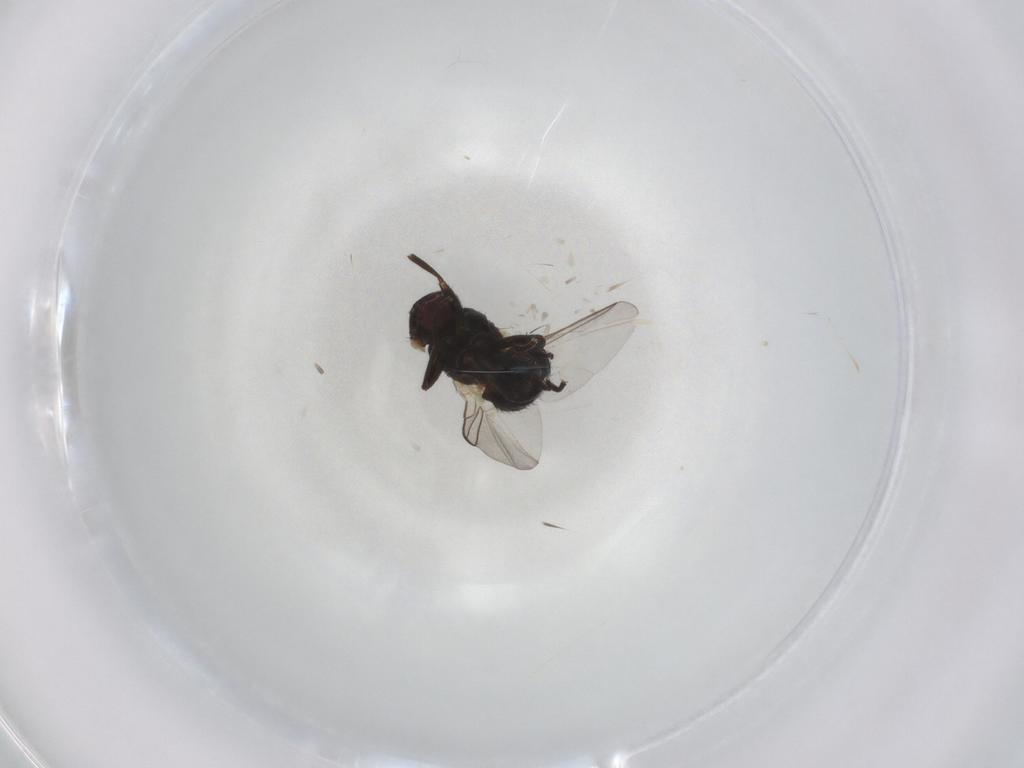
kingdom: Animalia
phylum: Arthropoda
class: Insecta
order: Diptera
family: Agromyzidae
